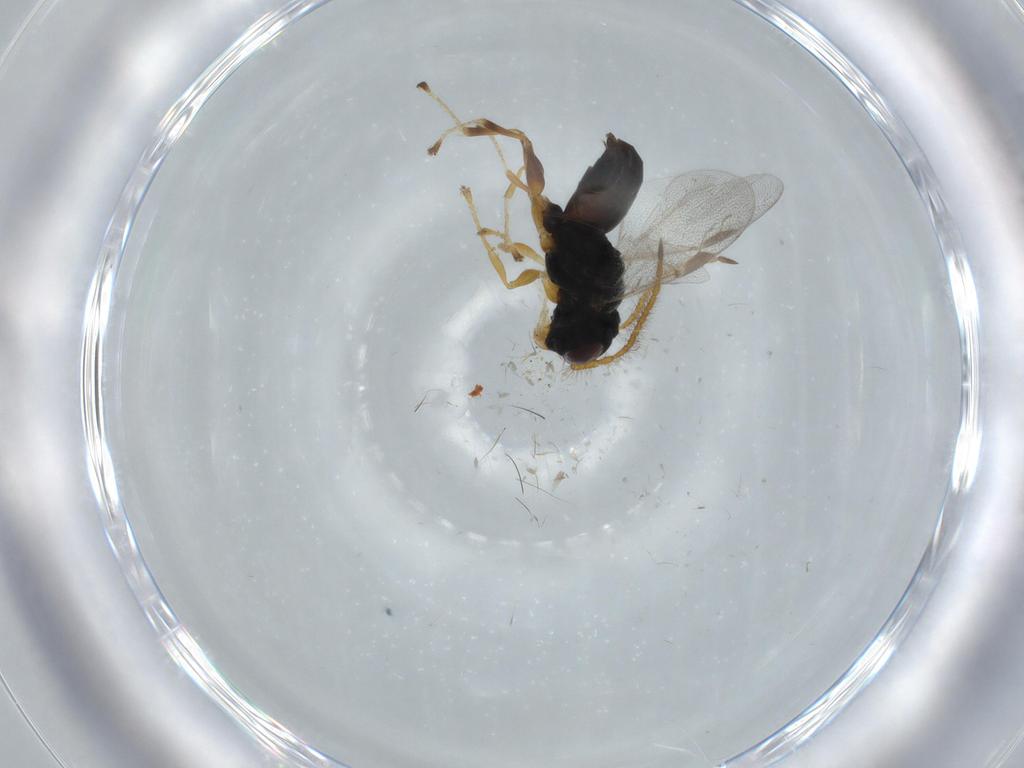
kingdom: Animalia
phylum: Arthropoda
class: Insecta
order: Hymenoptera
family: Dryinidae
